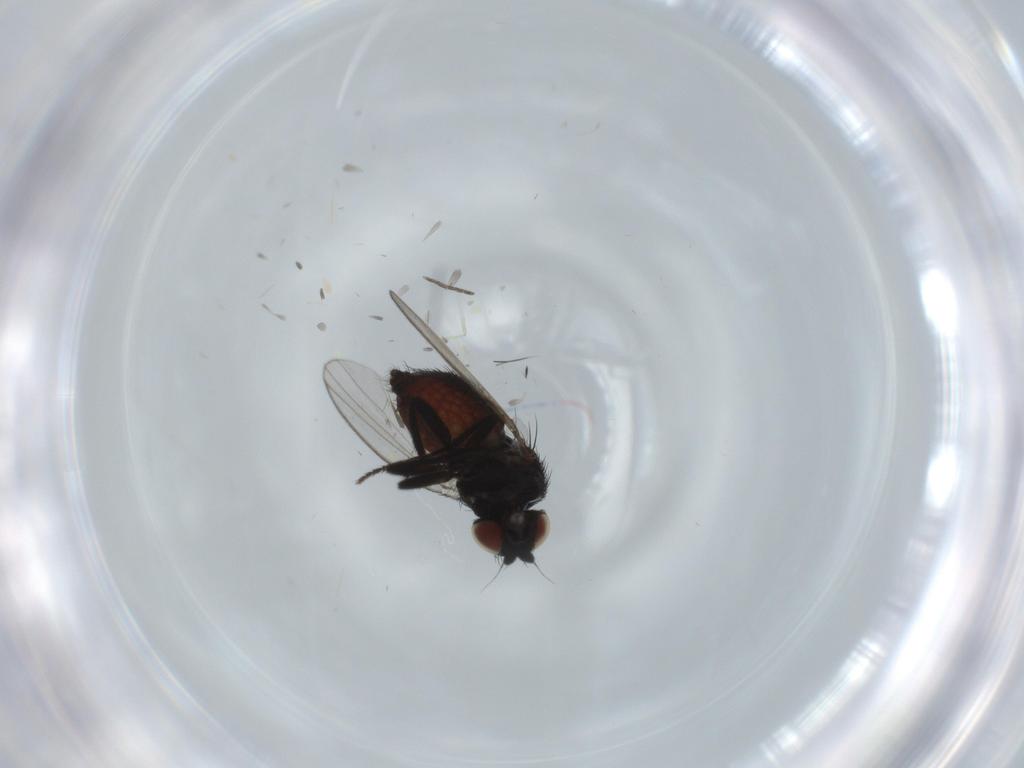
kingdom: Animalia
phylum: Arthropoda
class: Insecta
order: Diptera
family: Milichiidae
